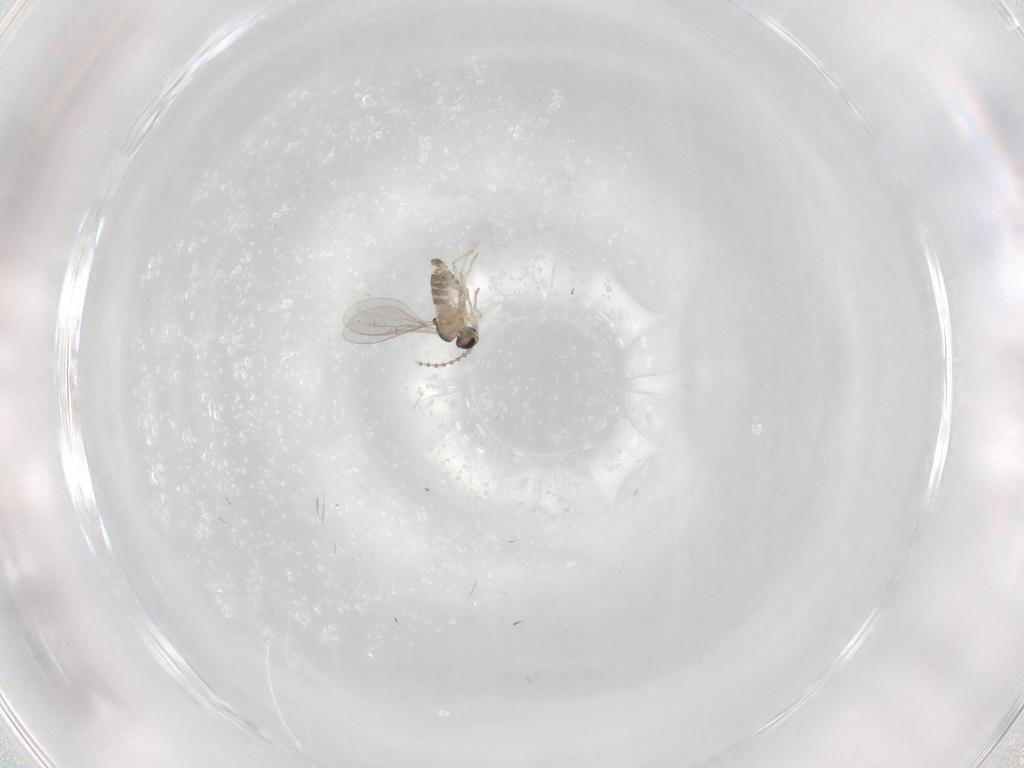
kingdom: Animalia
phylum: Arthropoda
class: Insecta
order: Diptera
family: Cecidomyiidae
